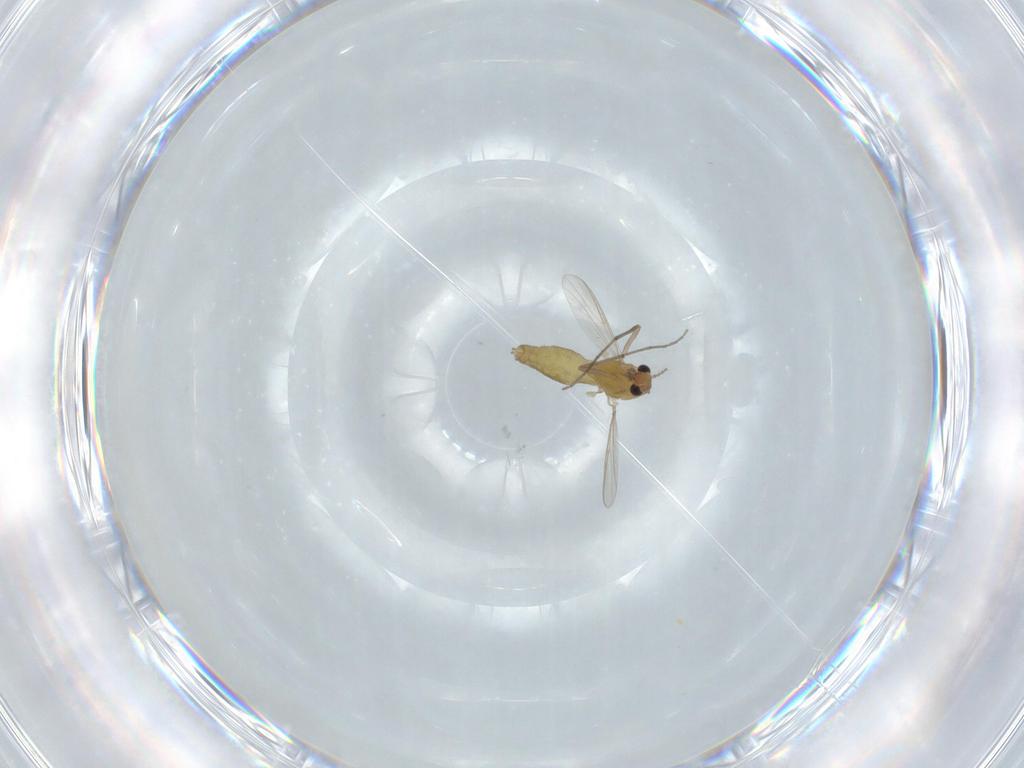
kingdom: Animalia
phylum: Arthropoda
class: Insecta
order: Diptera
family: Chironomidae
